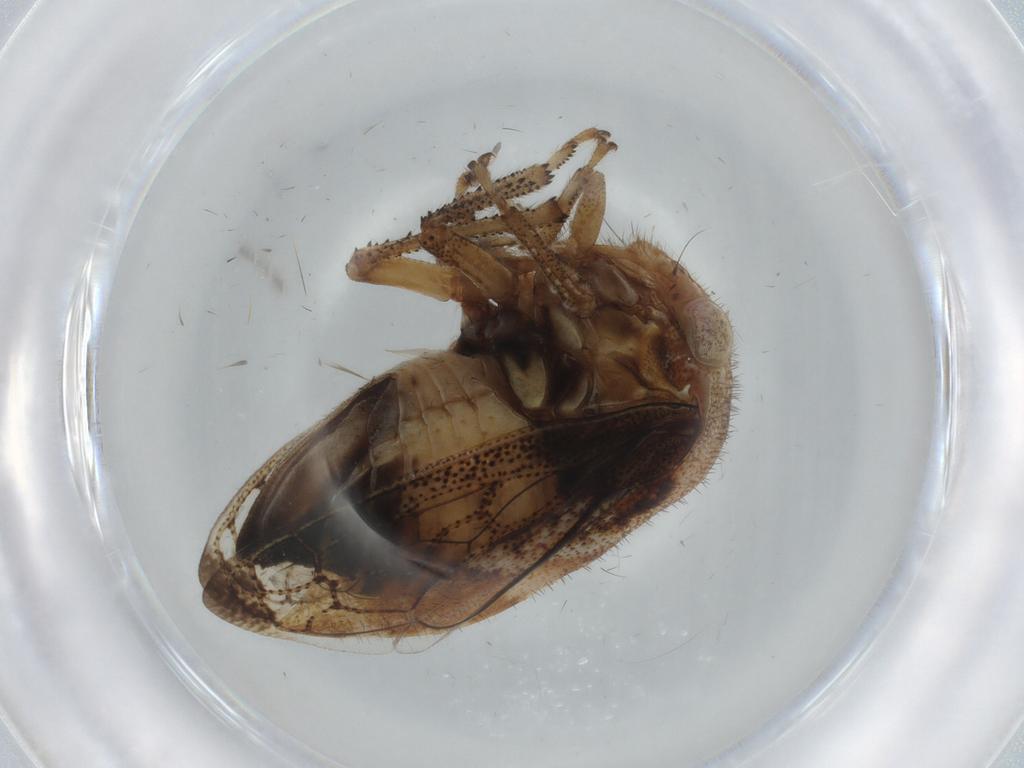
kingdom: Animalia
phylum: Arthropoda
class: Insecta
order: Hemiptera
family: Membracidae
